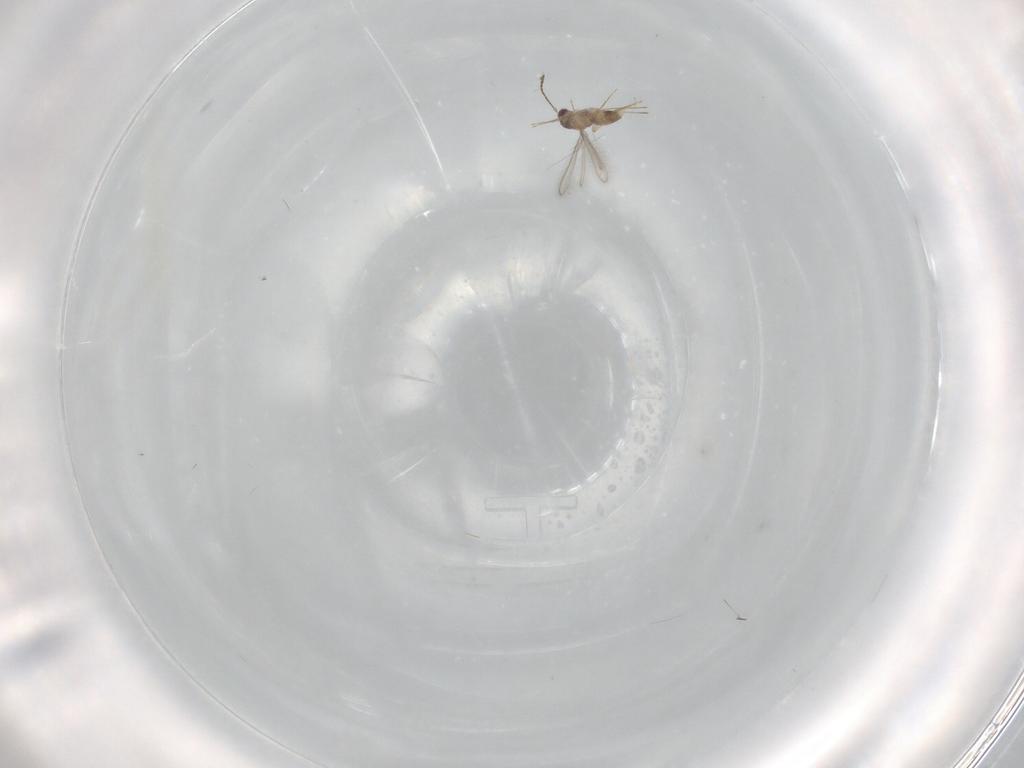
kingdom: Animalia
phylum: Arthropoda
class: Insecta
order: Hymenoptera
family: Mymaridae
